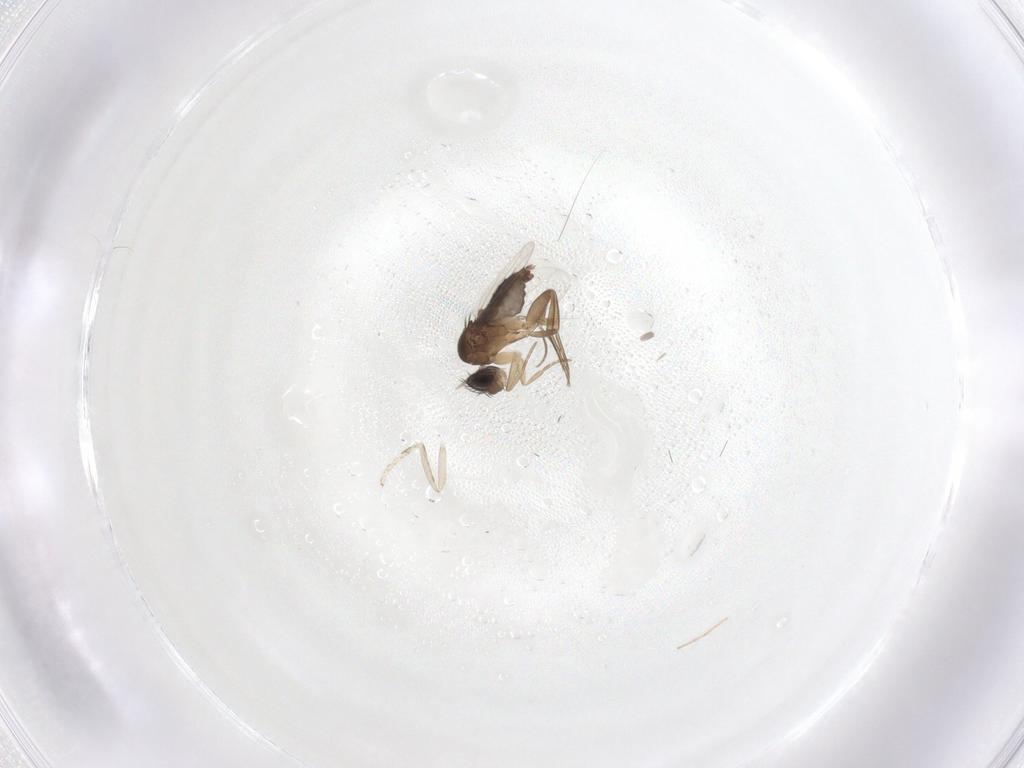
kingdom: Animalia
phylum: Arthropoda
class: Insecta
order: Diptera
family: Phoridae
